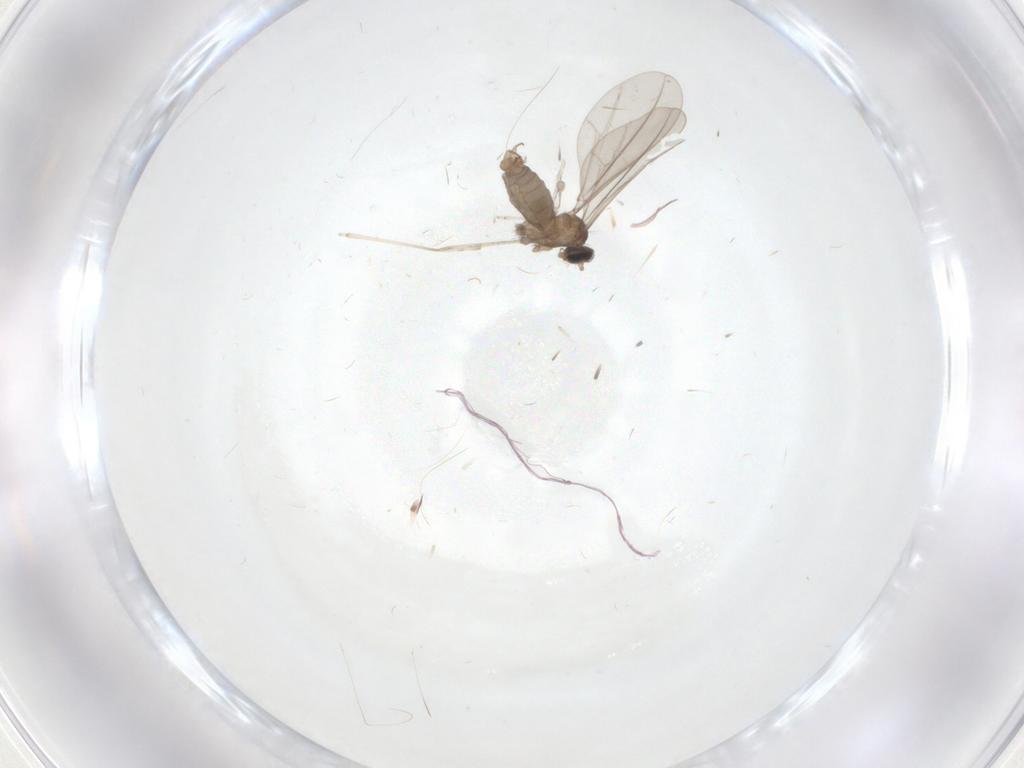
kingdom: Animalia
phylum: Arthropoda
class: Insecta
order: Diptera
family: Cecidomyiidae
